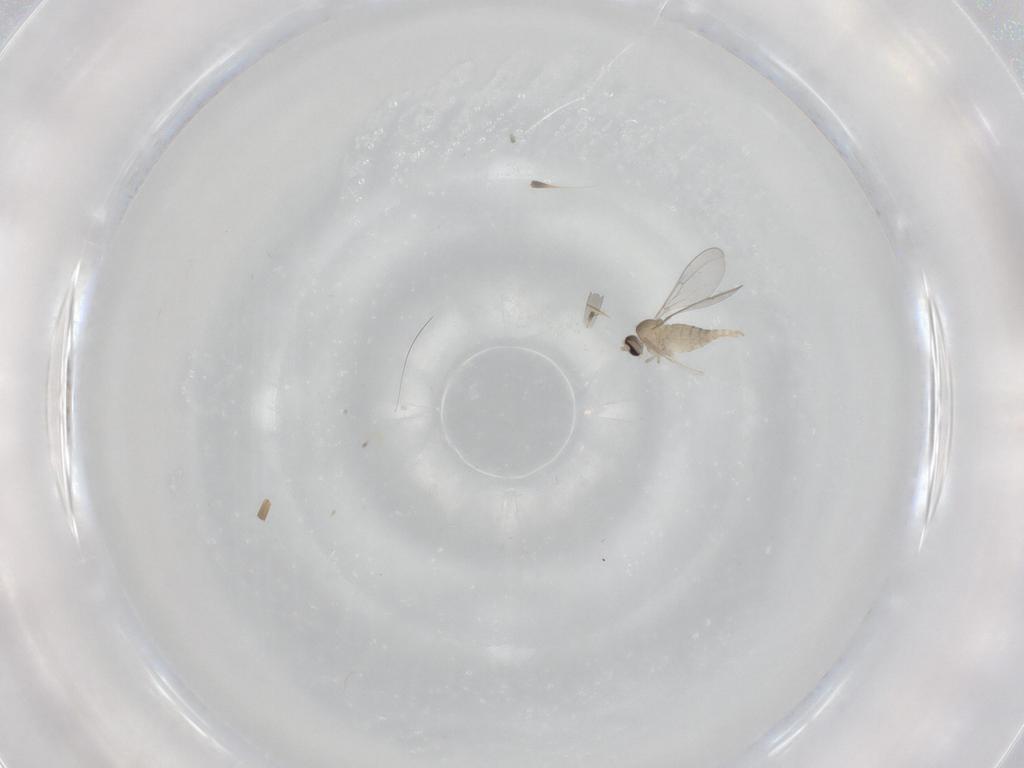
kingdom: Animalia
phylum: Arthropoda
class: Insecta
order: Diptera
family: Cecidomyiidae
